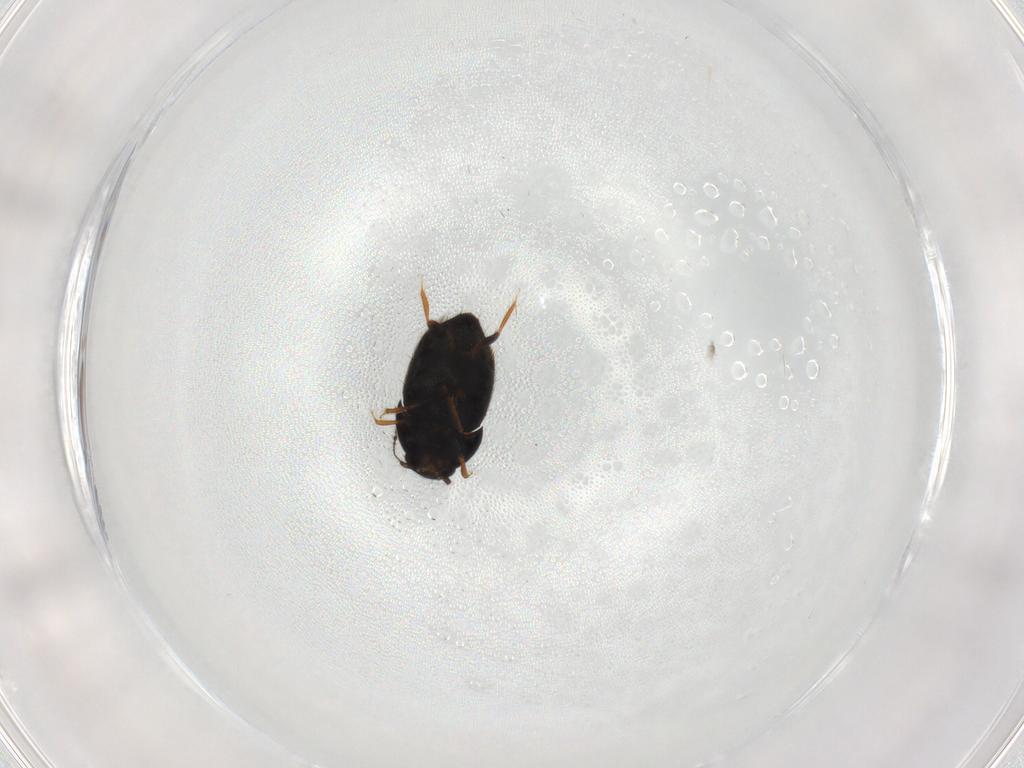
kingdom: Animalia
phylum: Arthropoda
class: Insecta
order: Coleoptera
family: Ptiliidae
